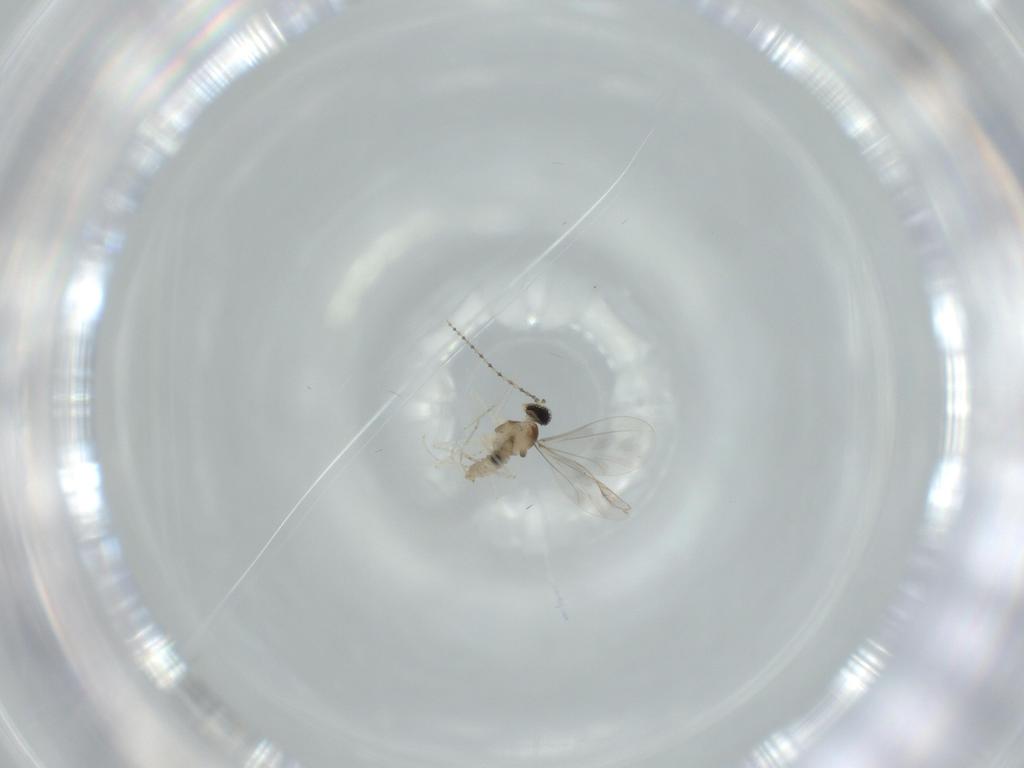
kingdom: Animalia
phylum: Arthropoda
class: Insecta
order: Diptera
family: Cecidomyiidae
